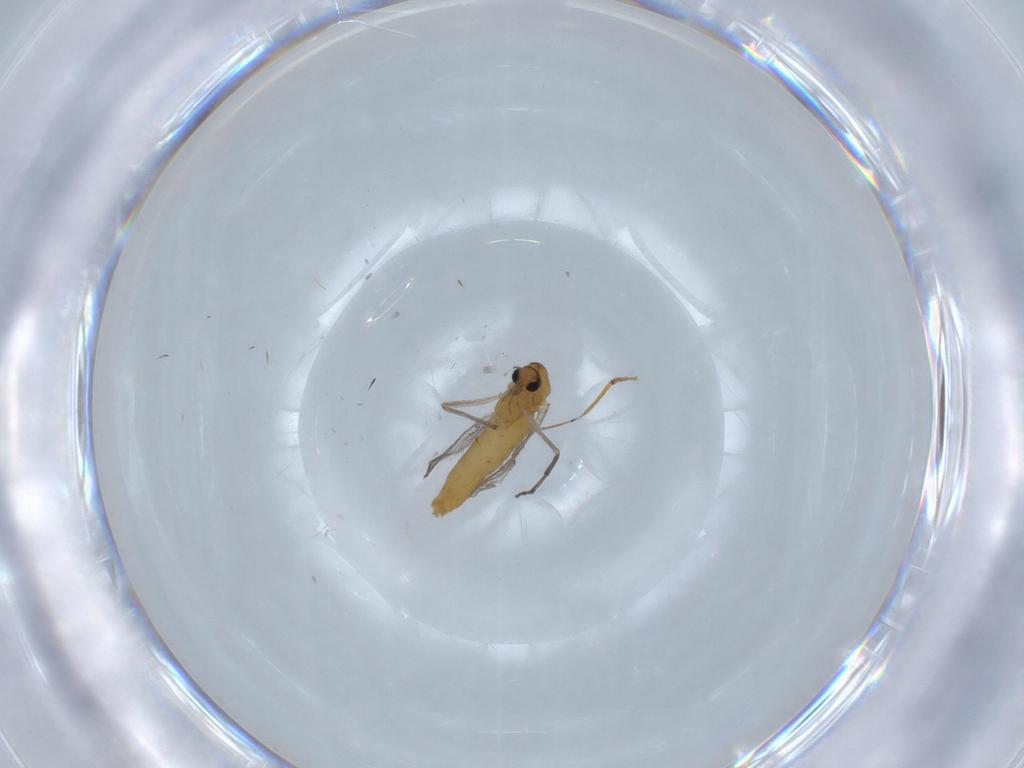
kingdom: Animalia
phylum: Arthropoda
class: Insecta
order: Diptera
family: Chironomidae
